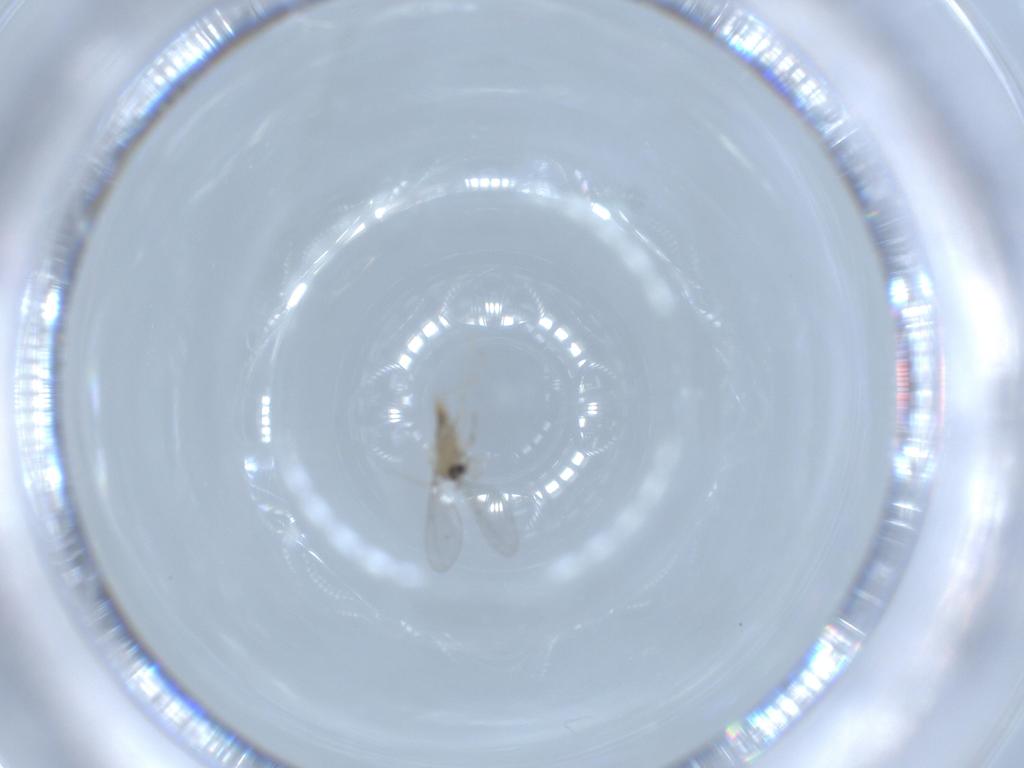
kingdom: Animalia
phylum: Arthropoda
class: Insecta
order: Diptera
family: Cecidomyiidae
